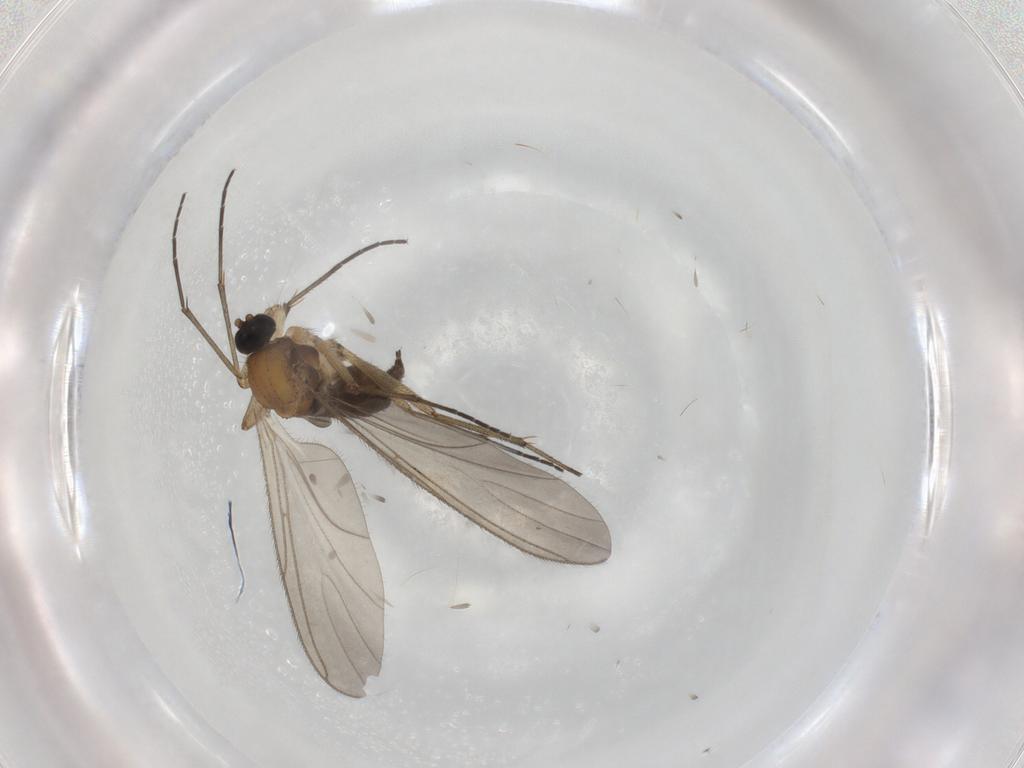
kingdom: Animalia
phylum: Arthropoda
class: Insecta
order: Diptera
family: Sciaridae
